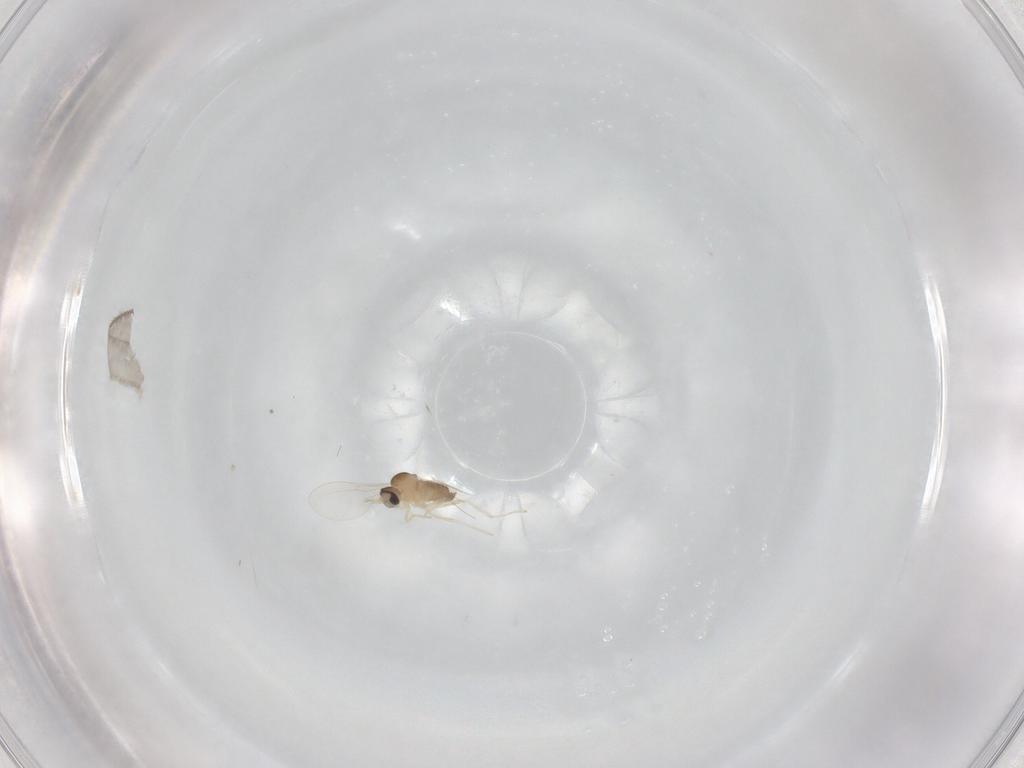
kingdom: Animalia
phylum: Arthropoda
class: Insecta
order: Diptera
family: Cecidomyiidae
